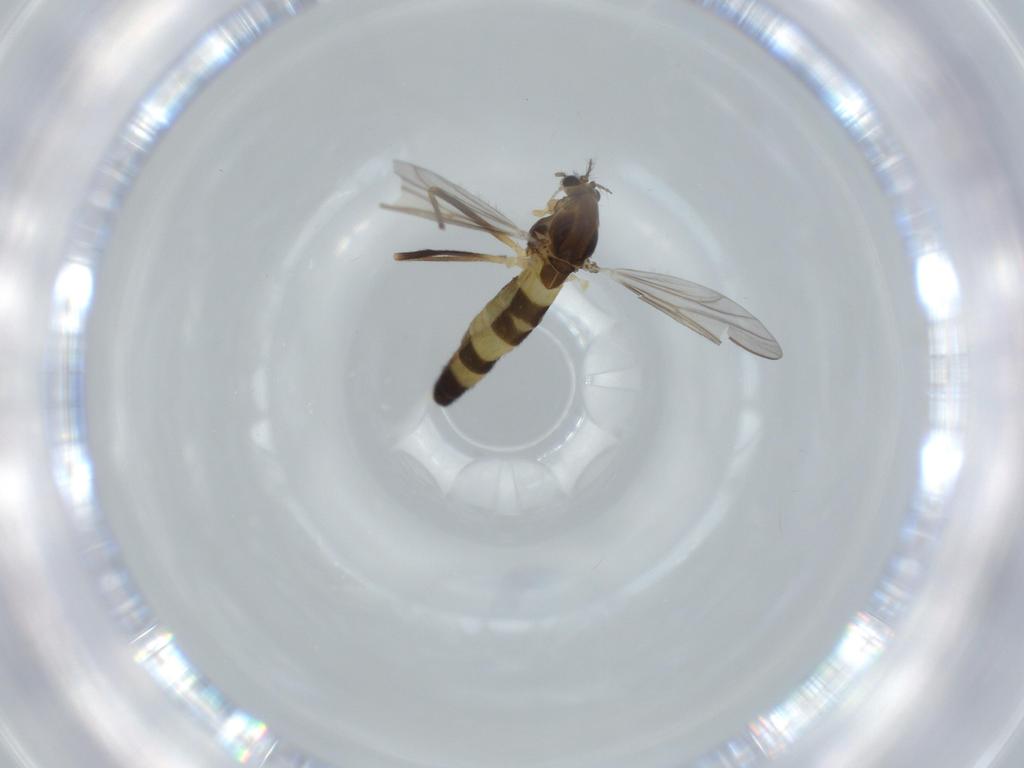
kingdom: Animalia
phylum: Arthropoda
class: Insecta
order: Diptera
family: Chironomidae
